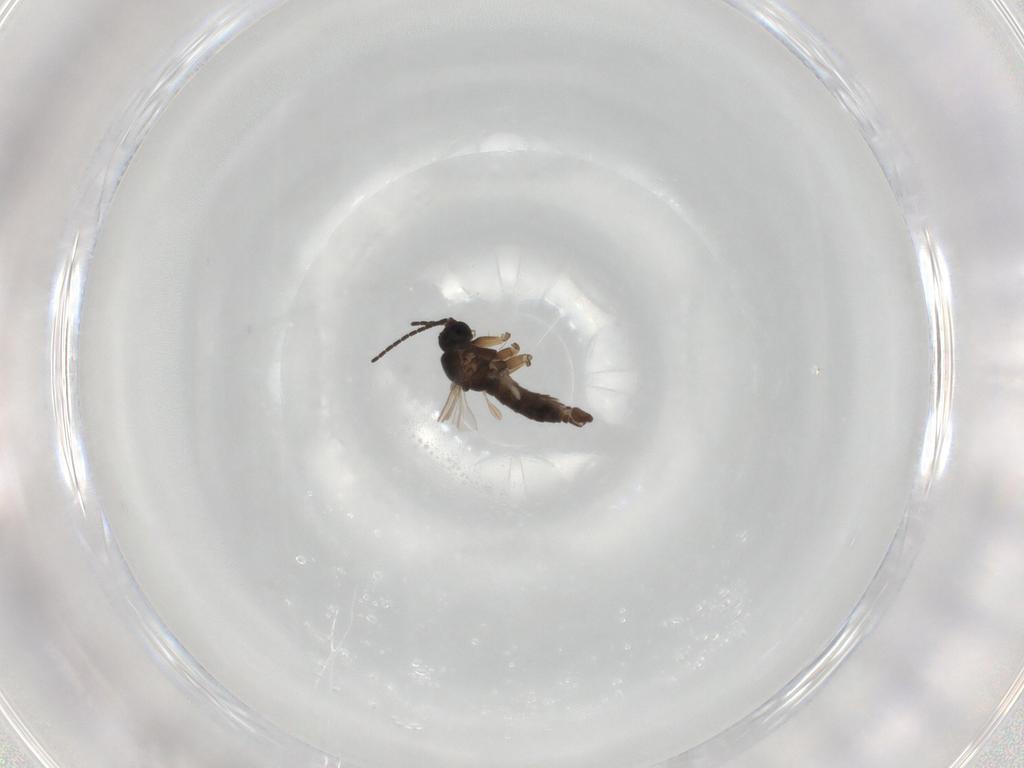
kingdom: Animalia
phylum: Arthropoda
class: Insecta
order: Diptera
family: Sciaridae
